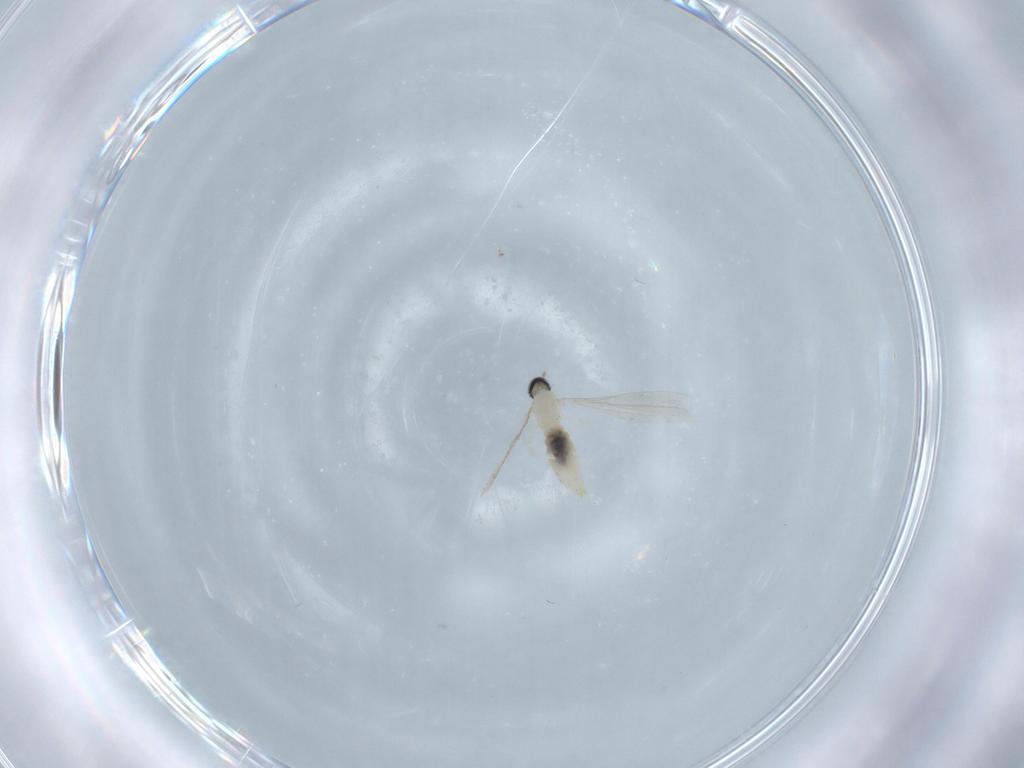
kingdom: Animalia
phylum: Arthropoda
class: Insecta
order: Diptera
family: Cecidomyiidae
